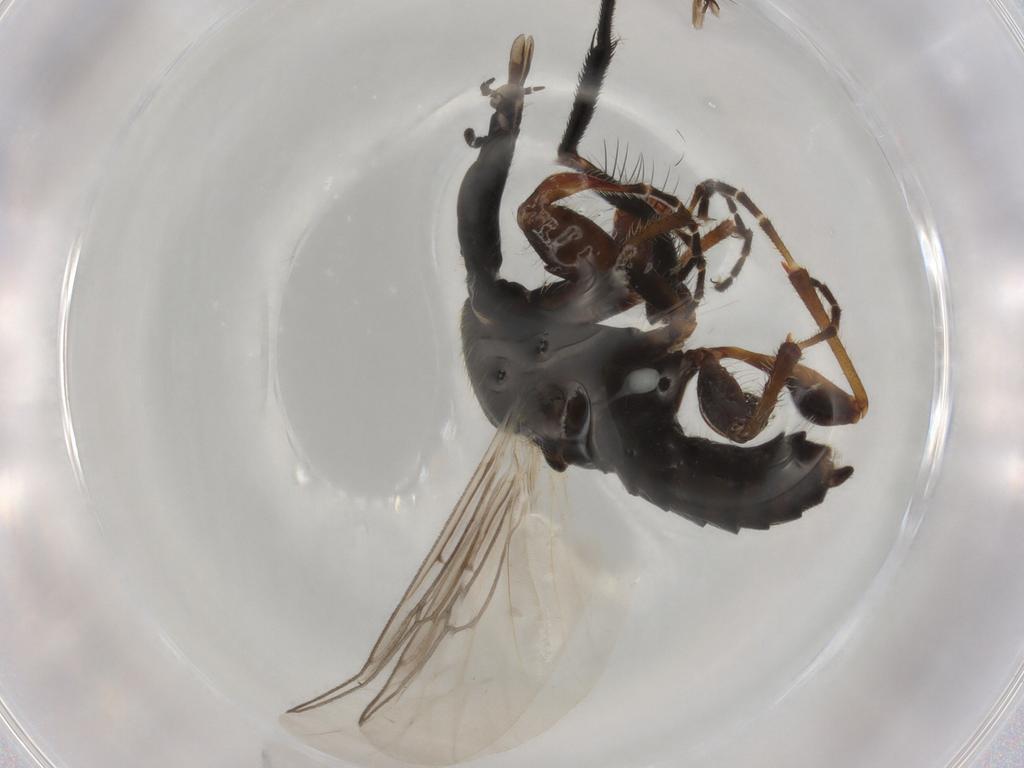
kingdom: Animalia
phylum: Arthropoda
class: Insecta
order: Diptera
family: Bibionidae
